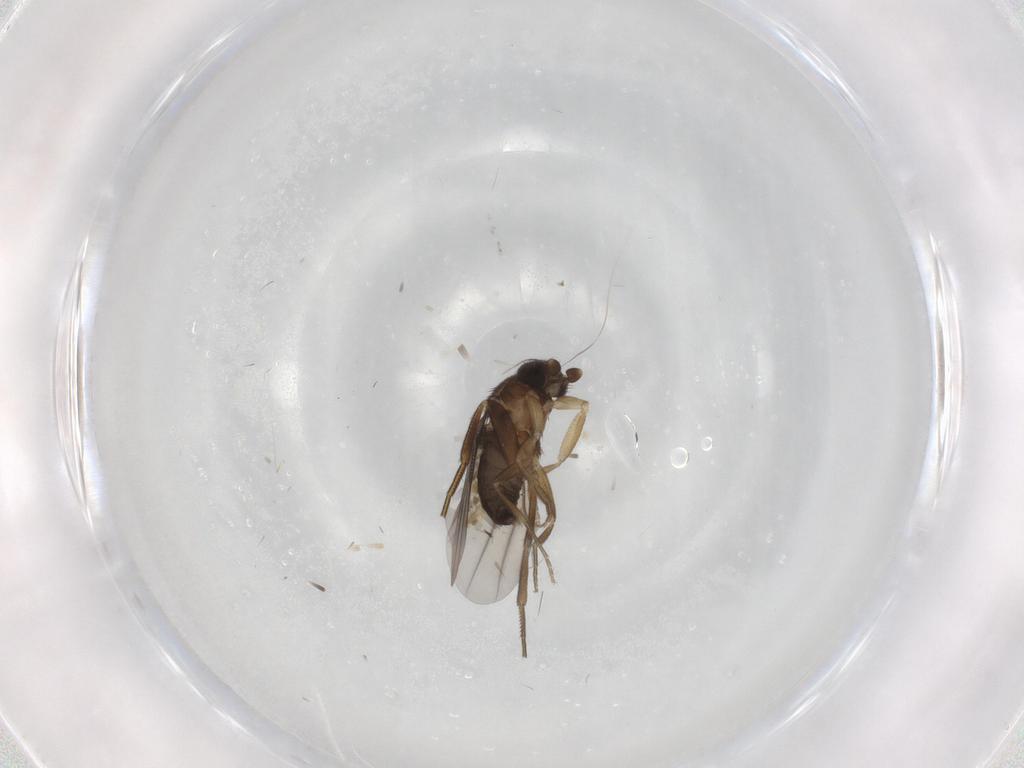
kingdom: Animalia
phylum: Arthropoda
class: Insecta
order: Diptera
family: Phoridae
